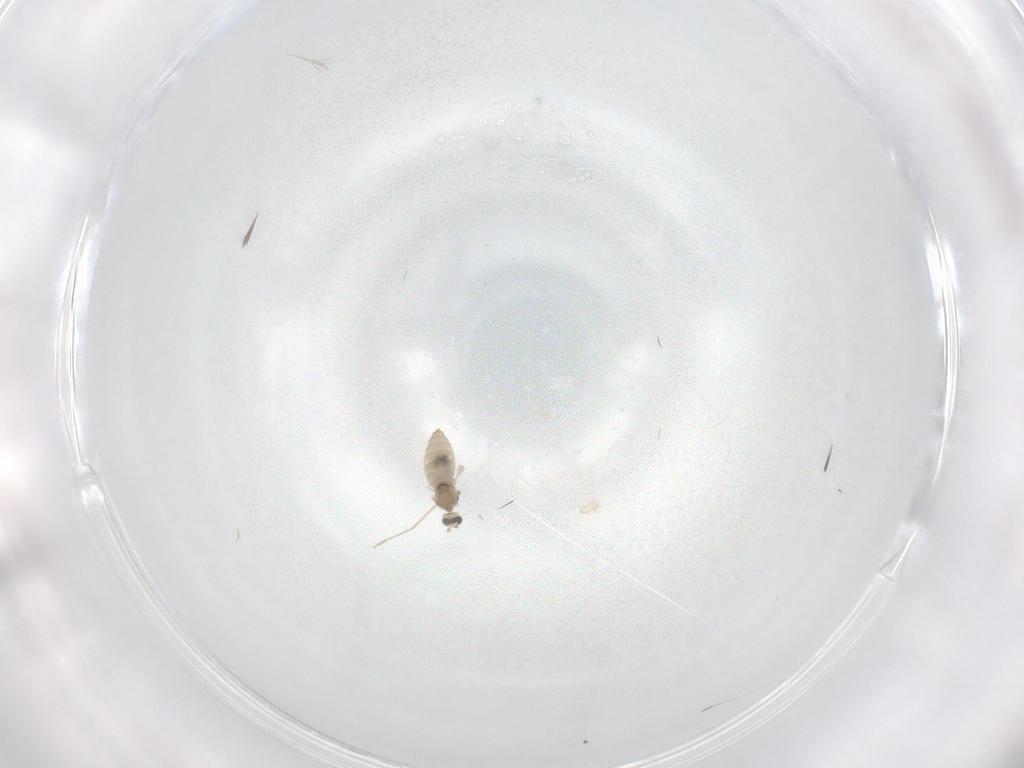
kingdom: Animalia
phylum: Arthropoda
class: Insecta
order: Diptera
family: Cecidomyiidae
